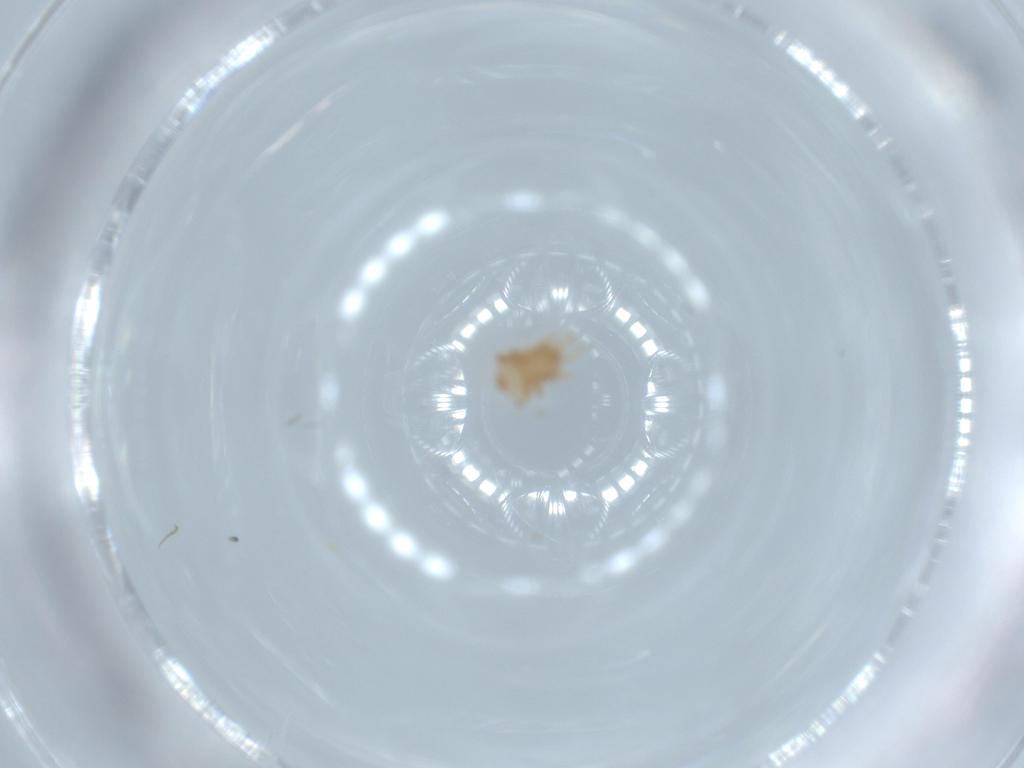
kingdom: Animalia
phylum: Arthropoda
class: Arachnida
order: Mesostigmata
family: Halolaelapidae
